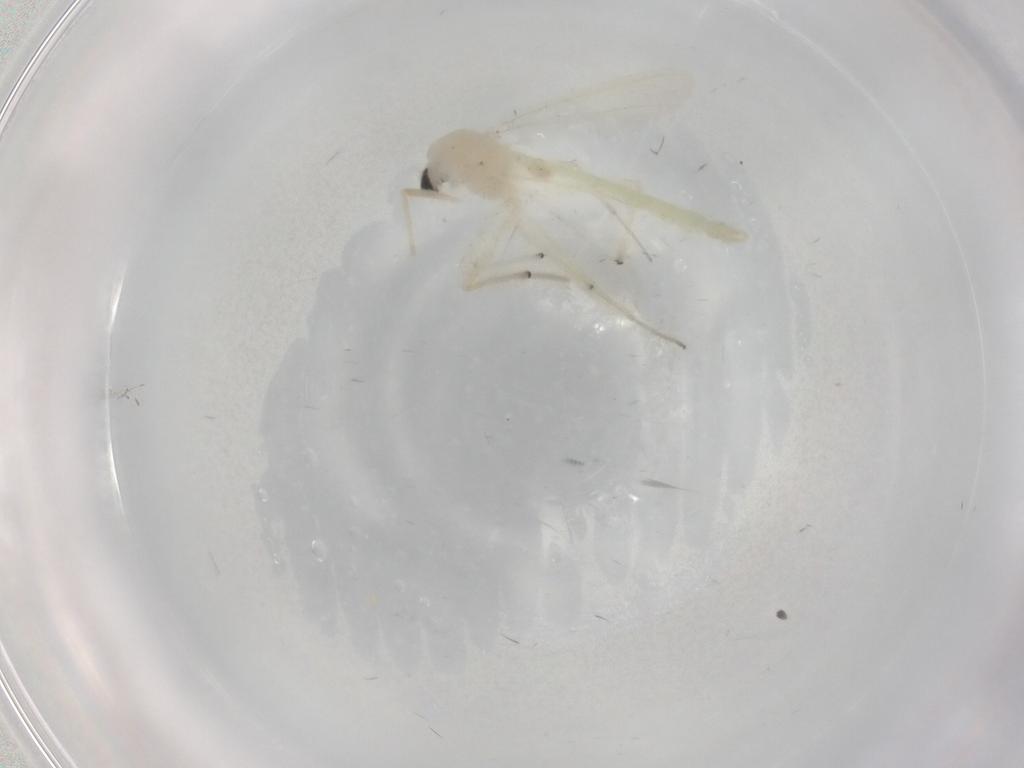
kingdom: Animalia
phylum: Arthropoda
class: Insecta
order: Diptera
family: Chironomidae
